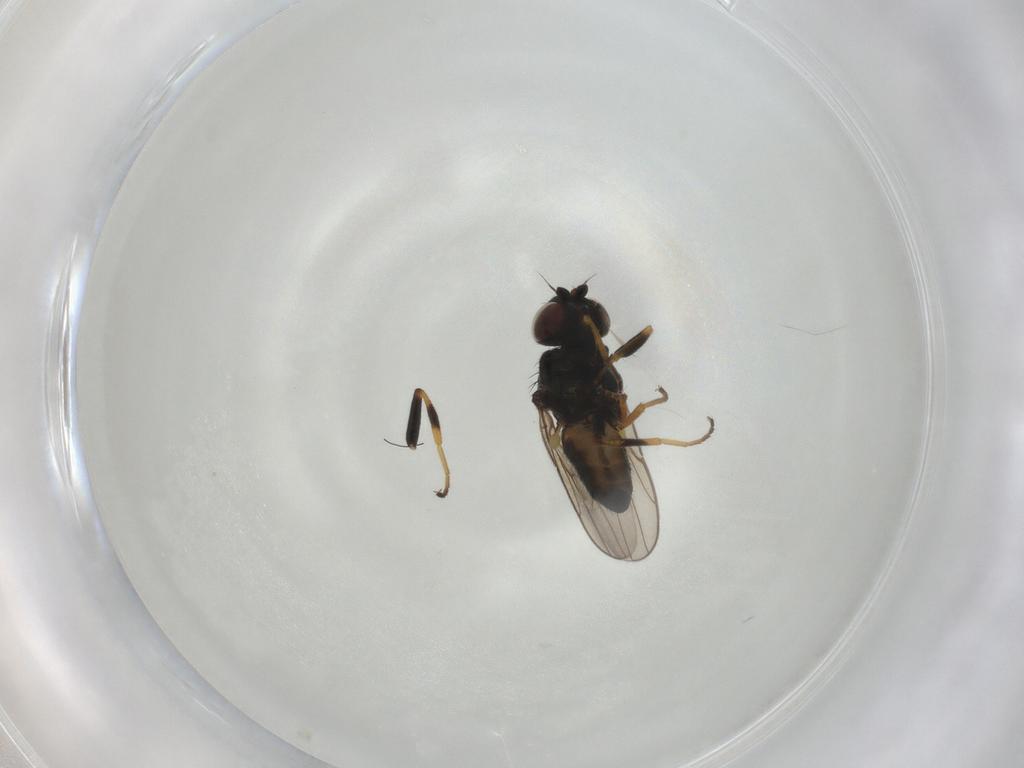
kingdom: Animalia
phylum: Arthropoda
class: Insecta
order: Diptera
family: Chloropidae
